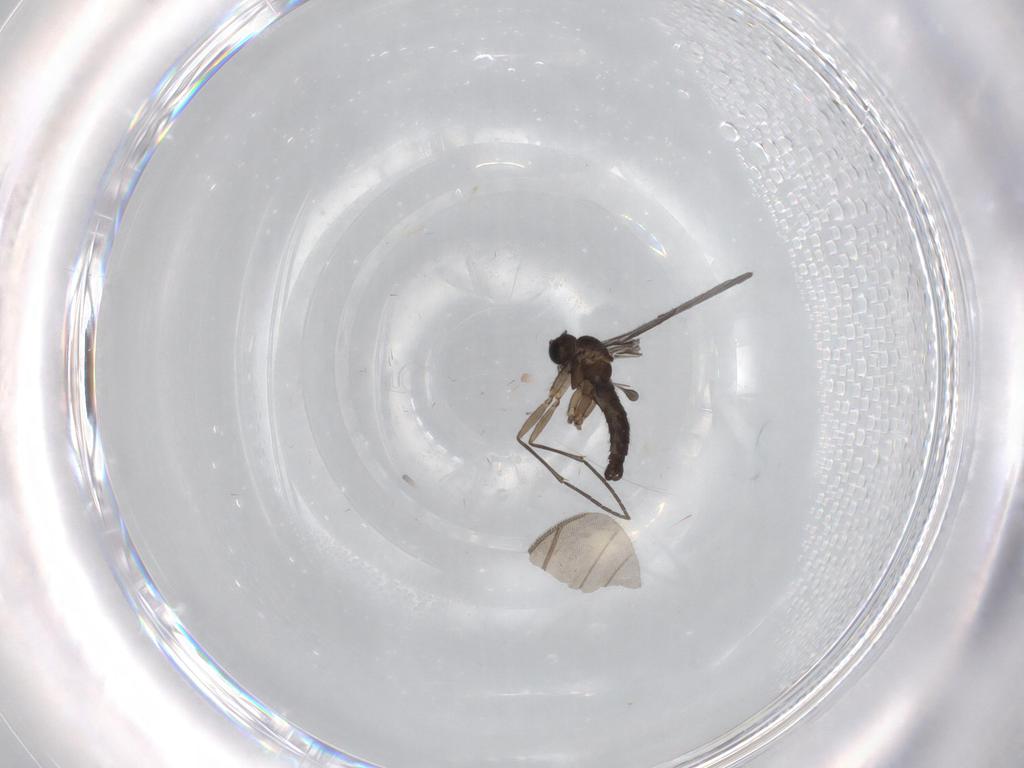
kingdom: Animalia
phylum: Arthropoda
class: Insecta
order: Diptera
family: Sciaridae
